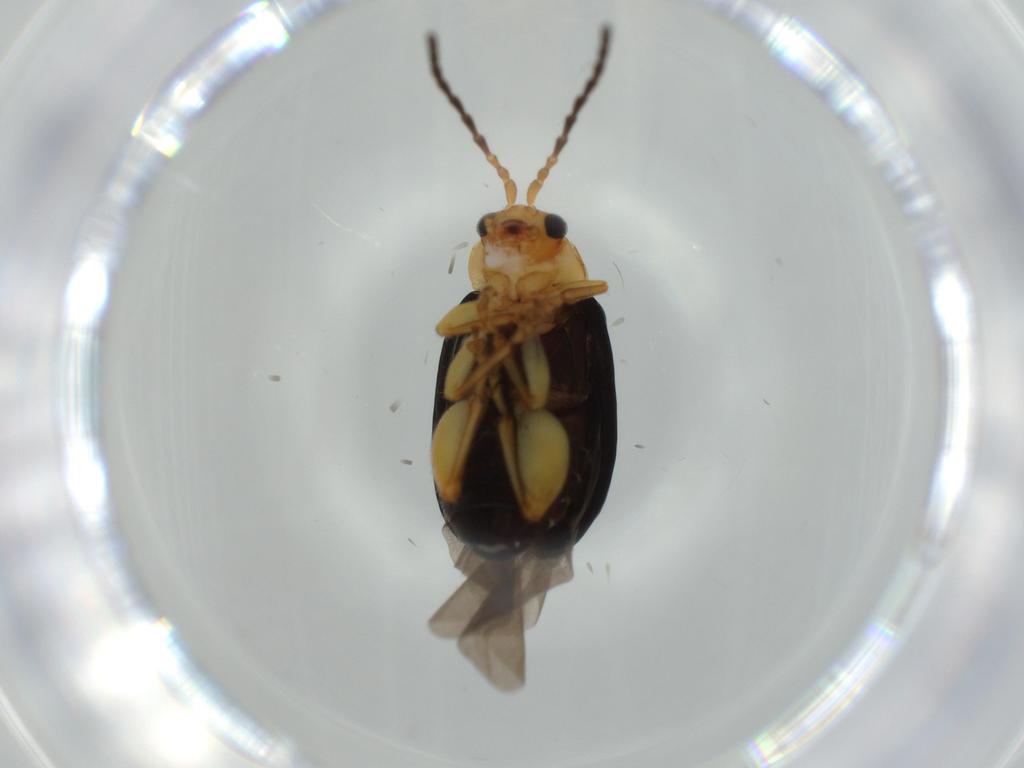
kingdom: Animalia
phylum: Arthropoda
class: Insecta
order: Coleoptera
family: Chrysomelidae
